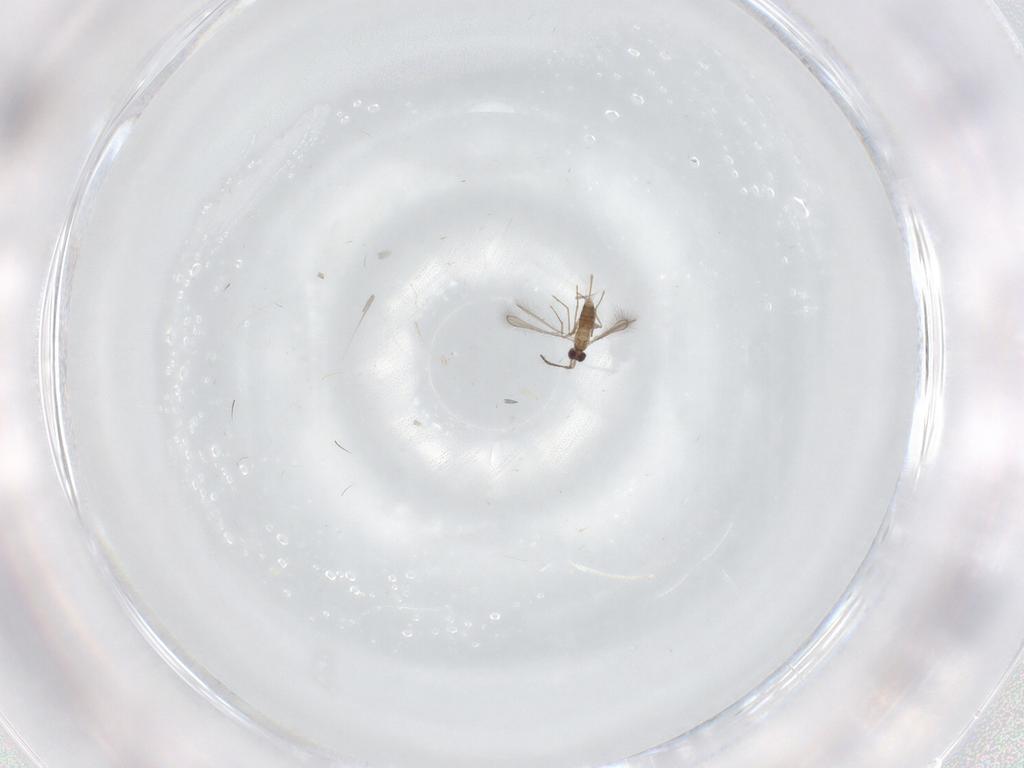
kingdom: Animalia
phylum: Arthropoda
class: Insecta
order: Hymenoptera
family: Mymaridae
